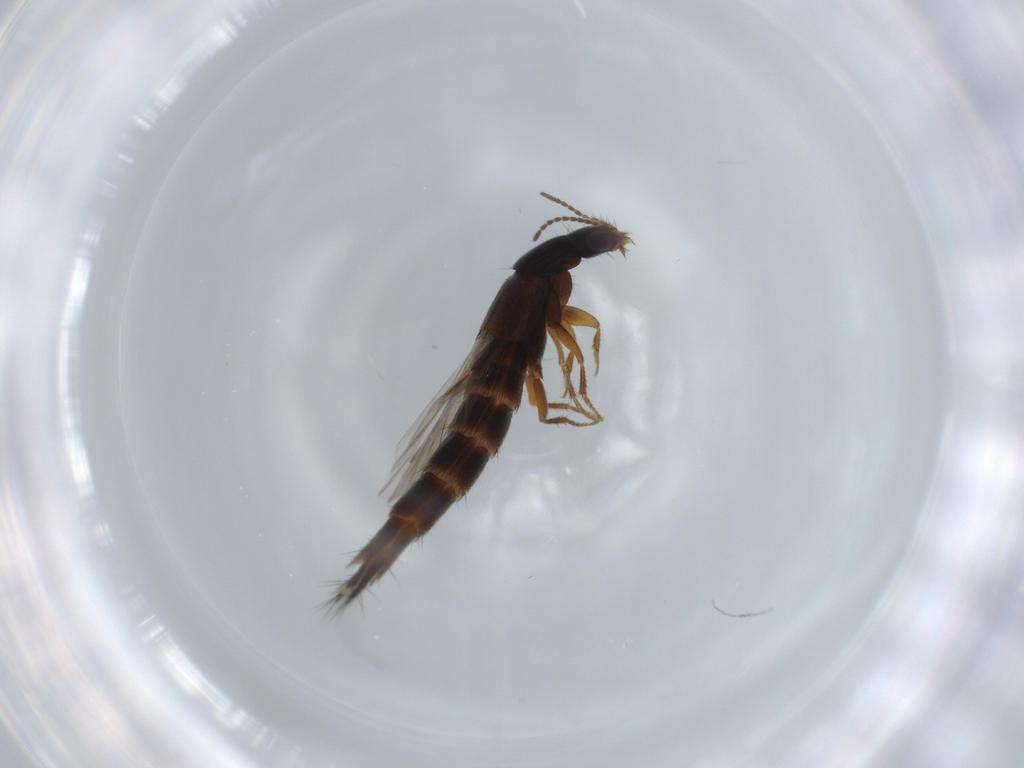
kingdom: Animalia
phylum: Arthropoda
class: Insecta
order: Coleoptera
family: Staphylinidae
